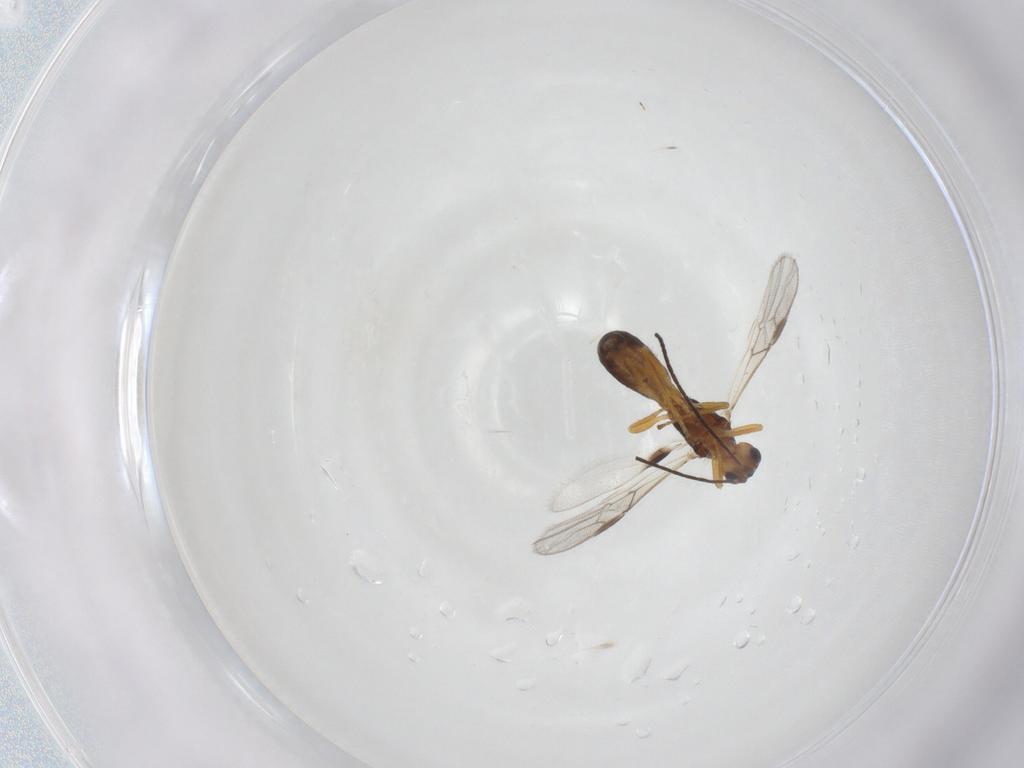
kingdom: Animalia
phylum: Arthropoda
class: Insecta
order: Hymenoptera
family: Braconidae
